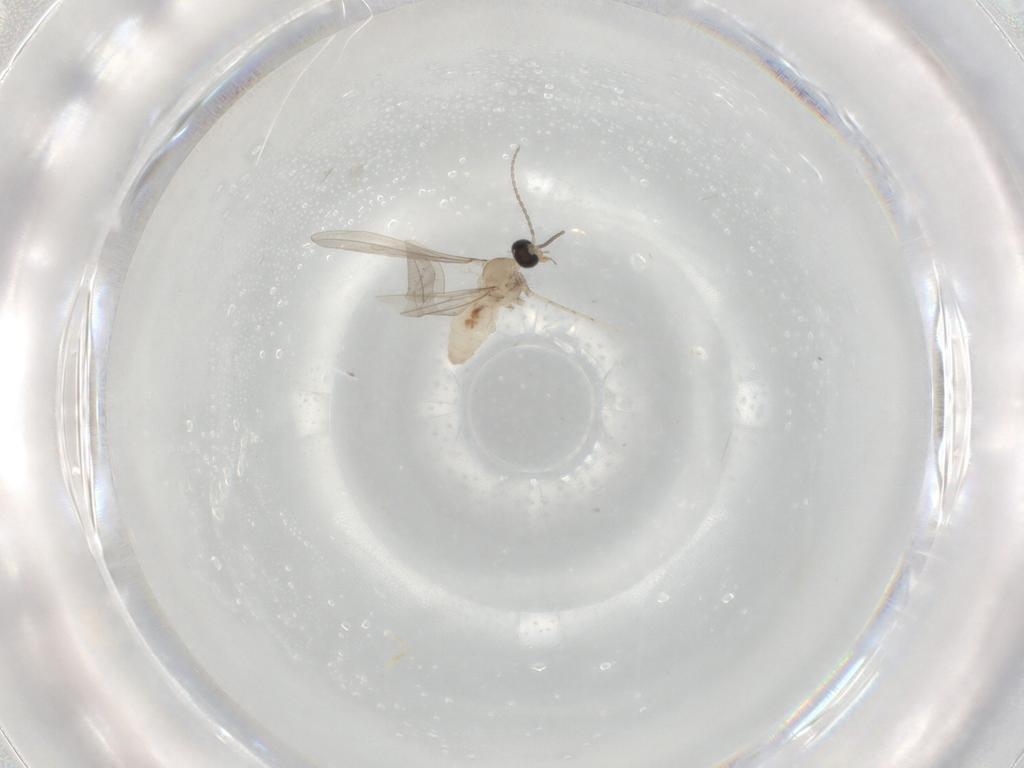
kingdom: Animalia
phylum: Arthropoda
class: Insecta
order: Diptera
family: Cecidomyiidae
